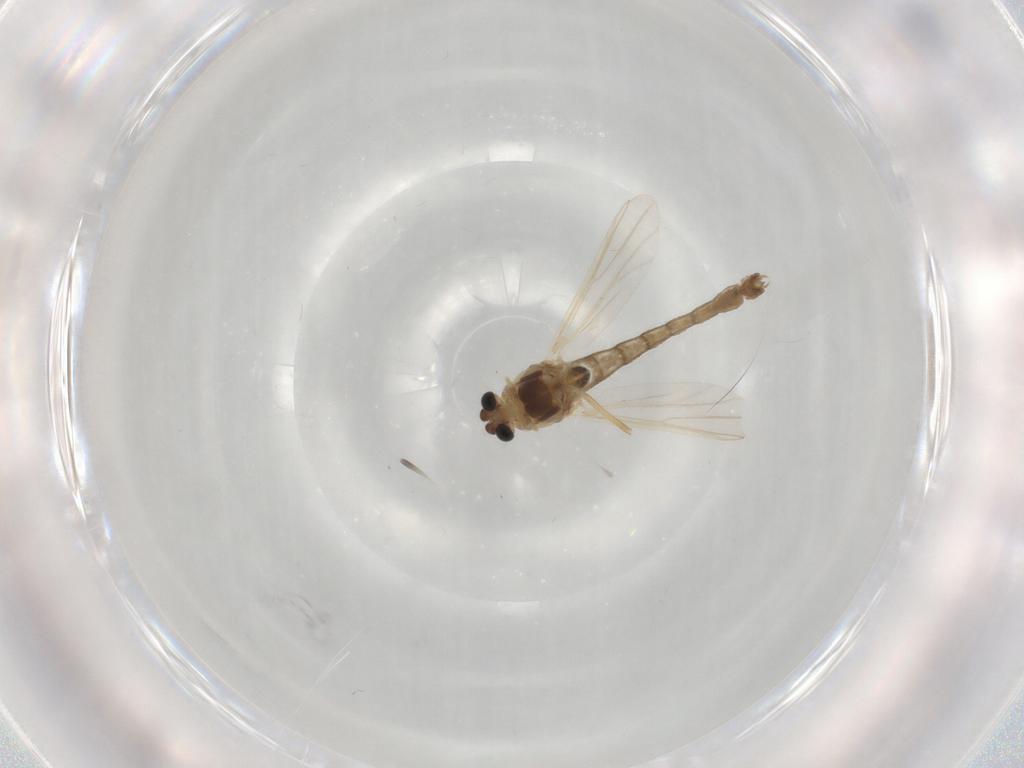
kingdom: Animalia
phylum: Arthropoda
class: Insecta
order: Diptera
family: Chironomidae
